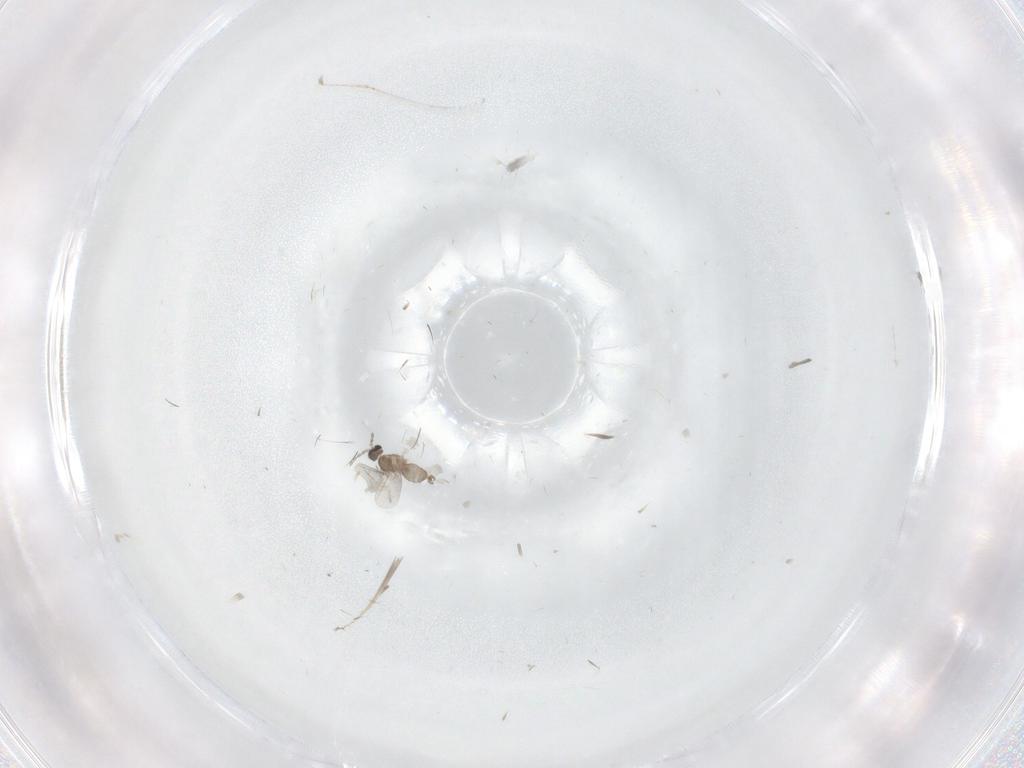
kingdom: Animalia
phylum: Arthropoda
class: Insecta
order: Diptera
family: Cecidomyiidae
